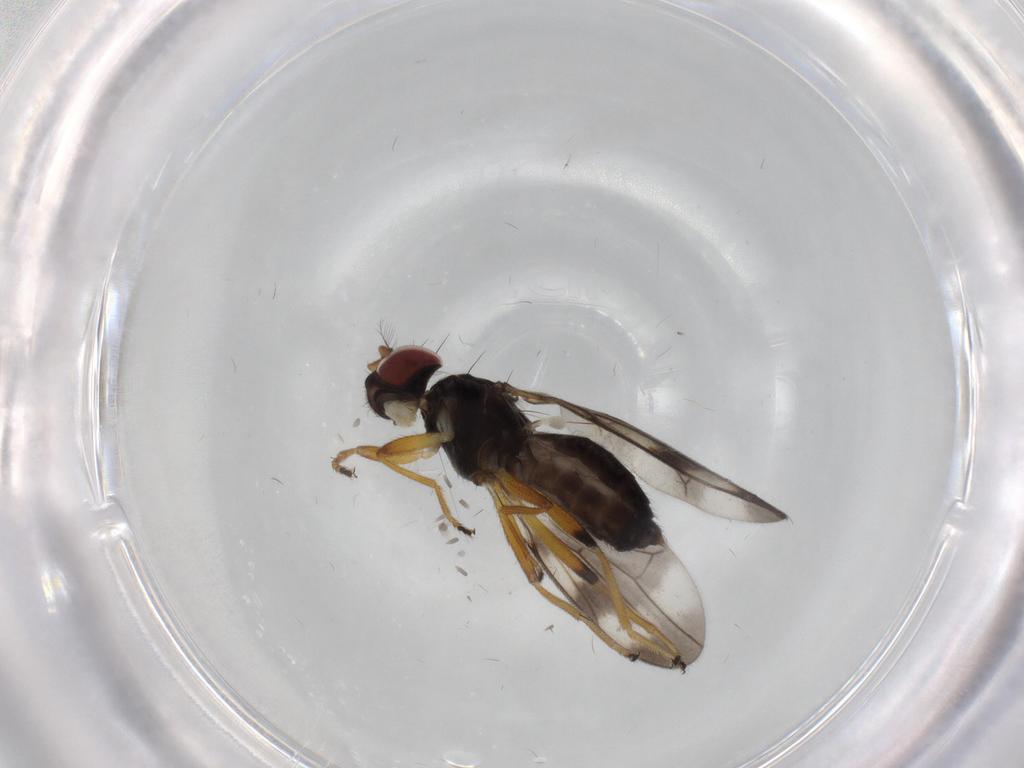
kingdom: Animalia
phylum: Arthropoda
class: Insecta
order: Diptera
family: Periscelididae
